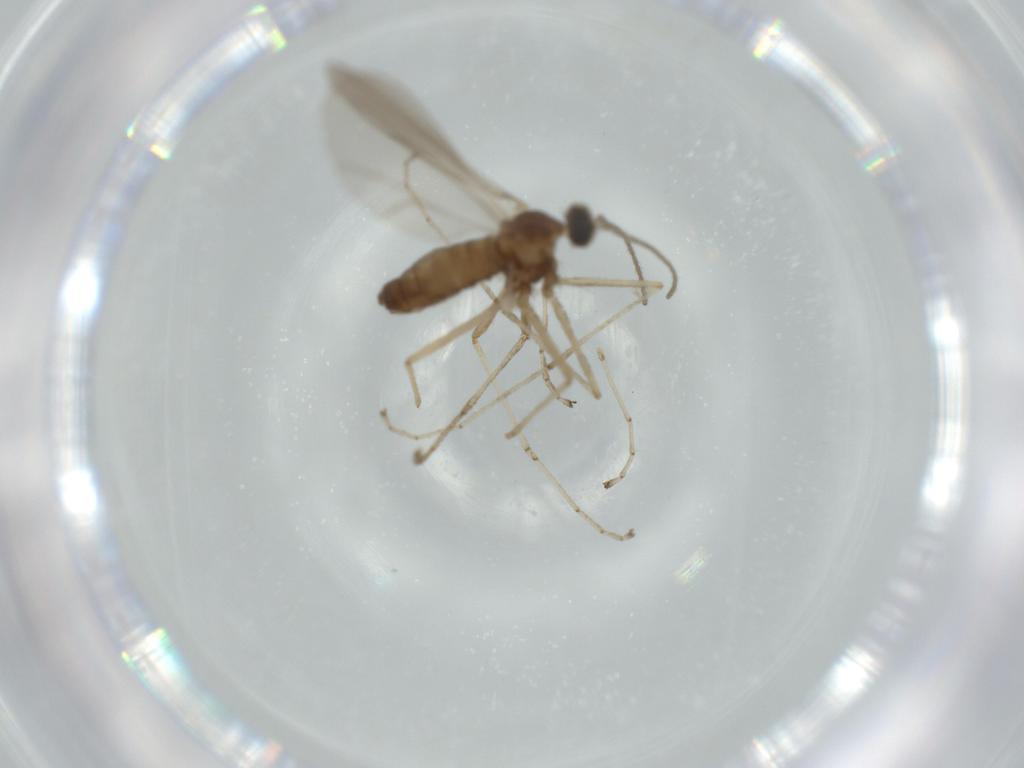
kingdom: Animalia
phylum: Arthropoda
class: Insecta
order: Diptera
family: Cecidomyiidae
